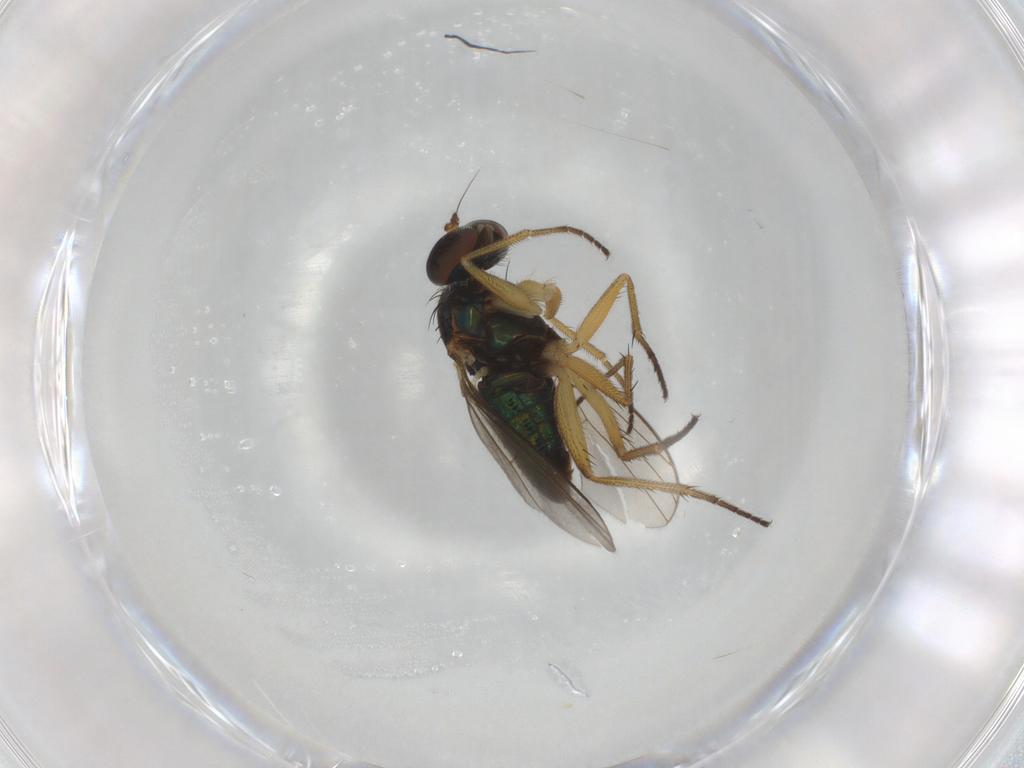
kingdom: Animalia
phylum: Arthropoda
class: Insecta
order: Diptera
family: Dolichopodidae
